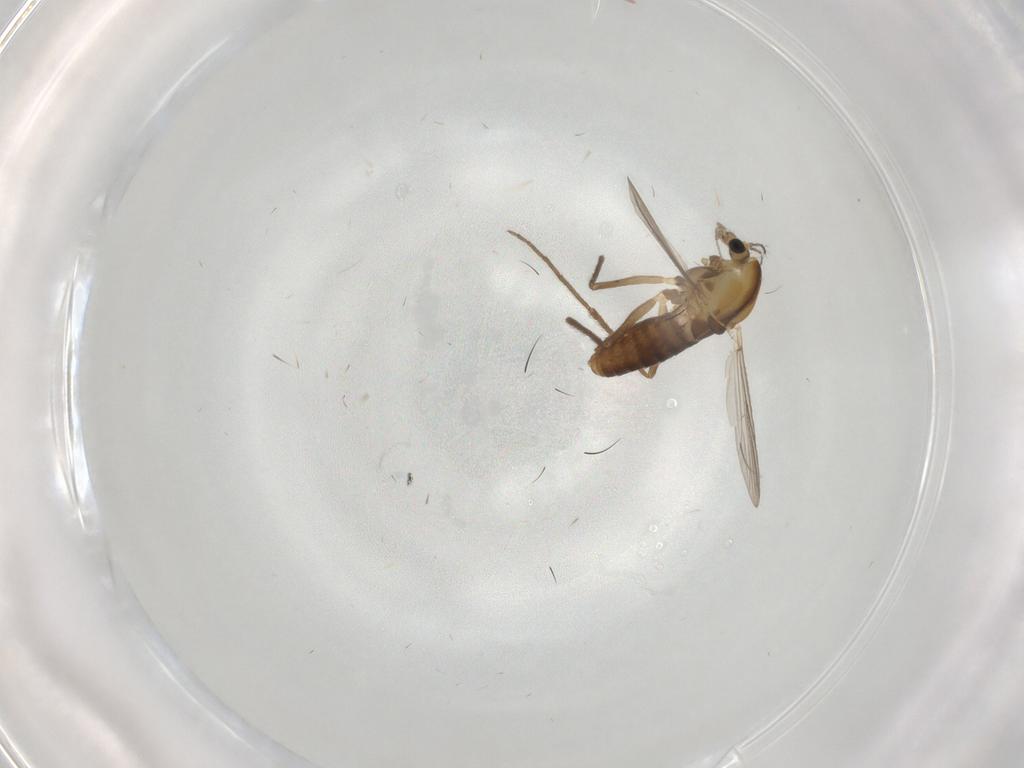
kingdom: Animalia
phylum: Arthropoda
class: Insecta
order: Diptera
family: Chironomidae
